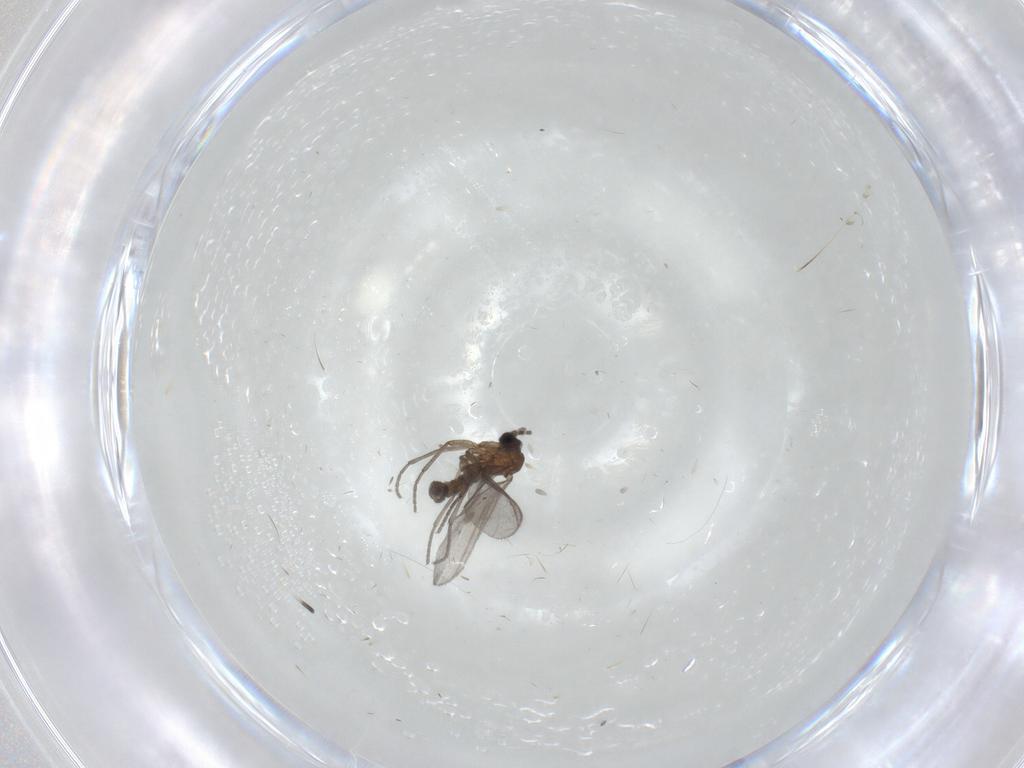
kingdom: Animalia
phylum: Arthropoda
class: Insecta
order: Diptera
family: Sciaridae
